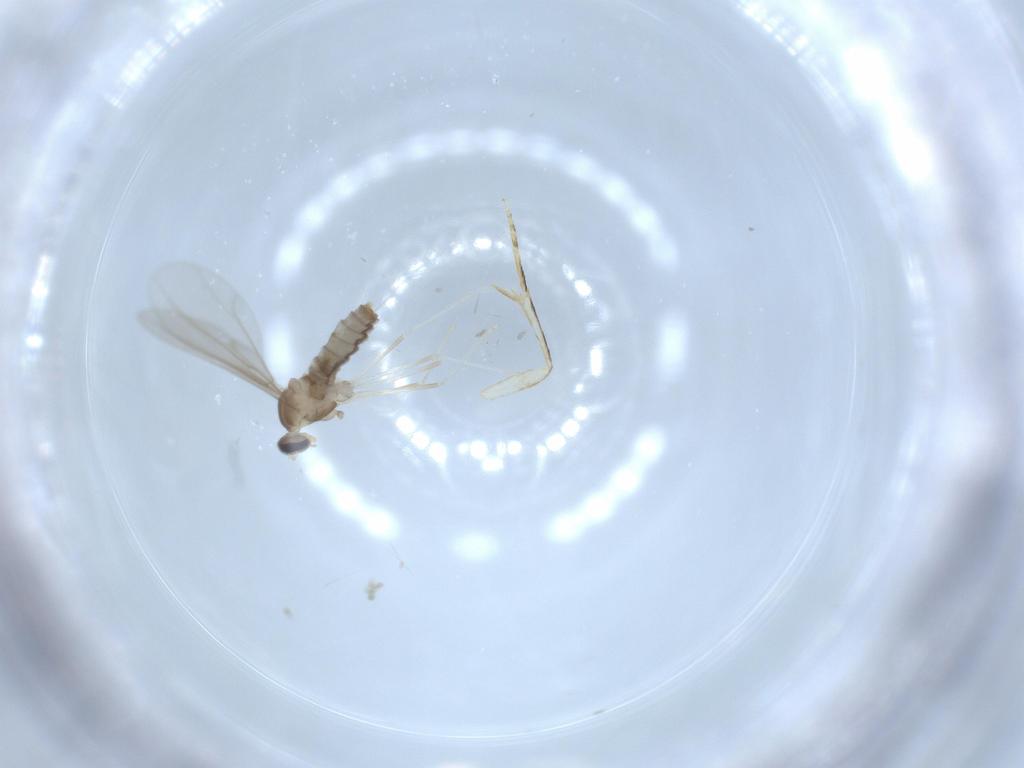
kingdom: Animalia
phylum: Arthropoda
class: Insecta
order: Diptera
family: Cecidomyiidae
